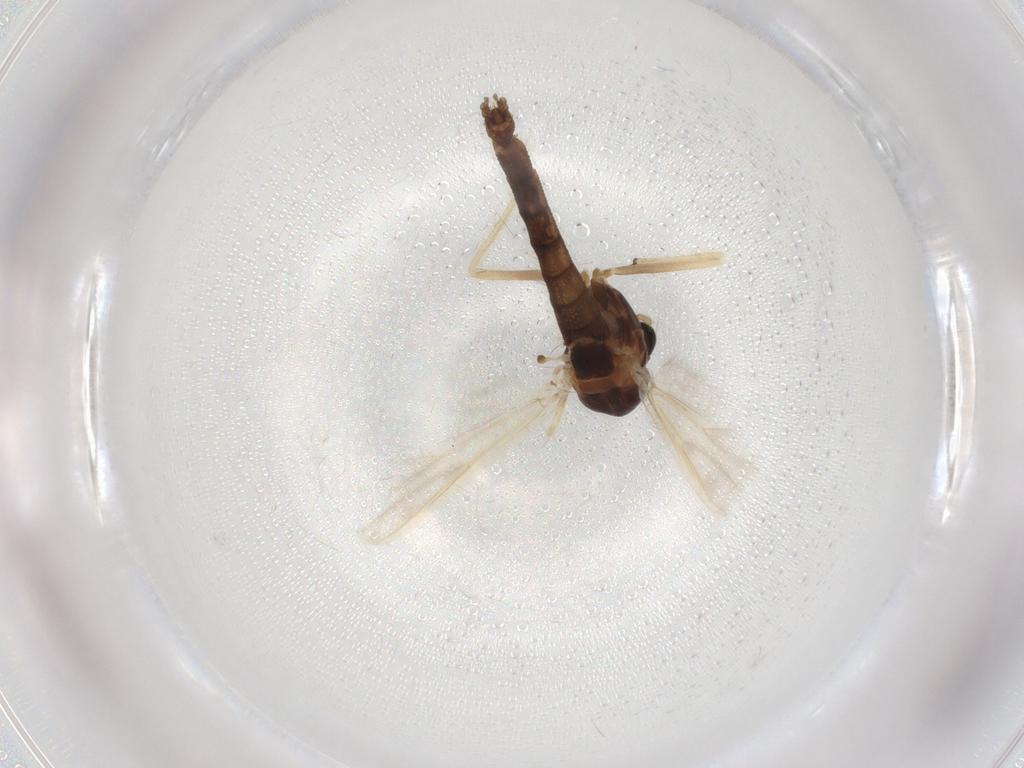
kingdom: Animalia
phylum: Arthropoda
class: Insecta
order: Diptera
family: Chironomidae
